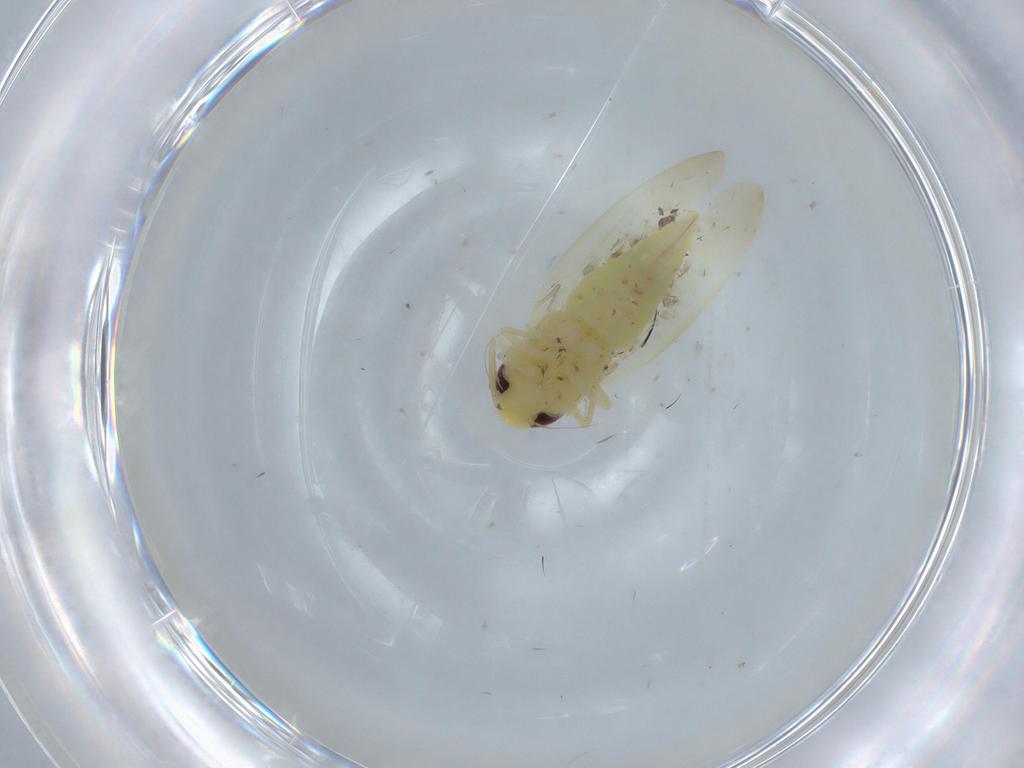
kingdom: Animalia
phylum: Arthropoda
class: Insecta
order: Hemiptera
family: Cicadellidae
